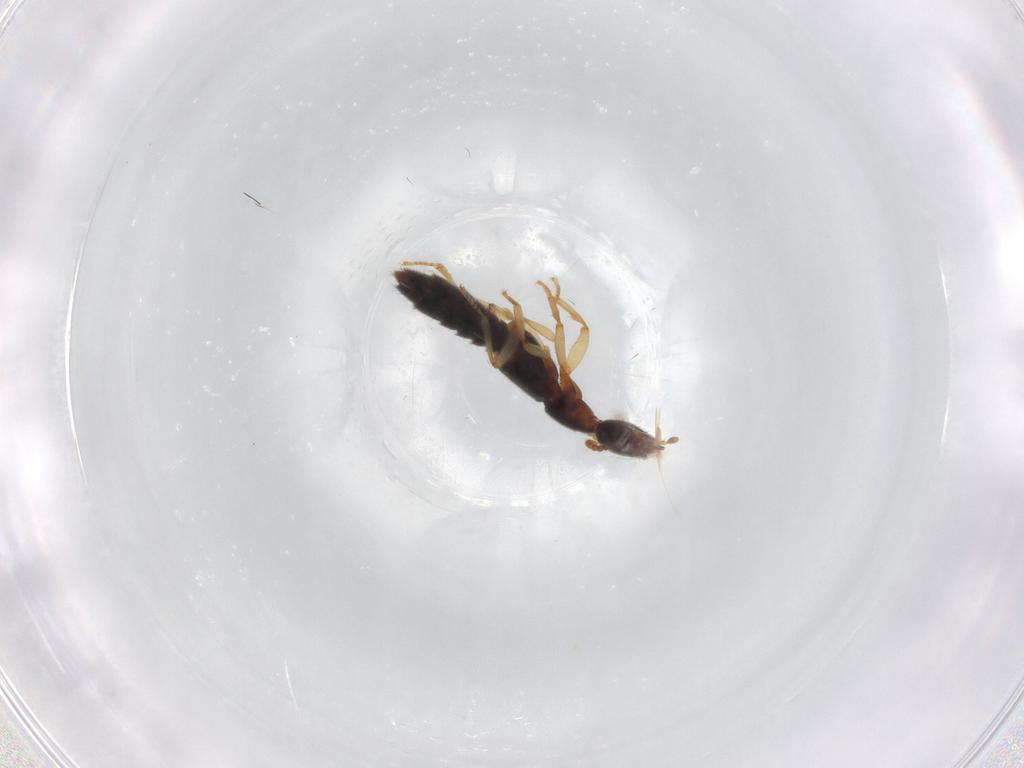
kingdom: Animalia
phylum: Arthropoda
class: Insecta
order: Coleoptera
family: Staphylinidae
